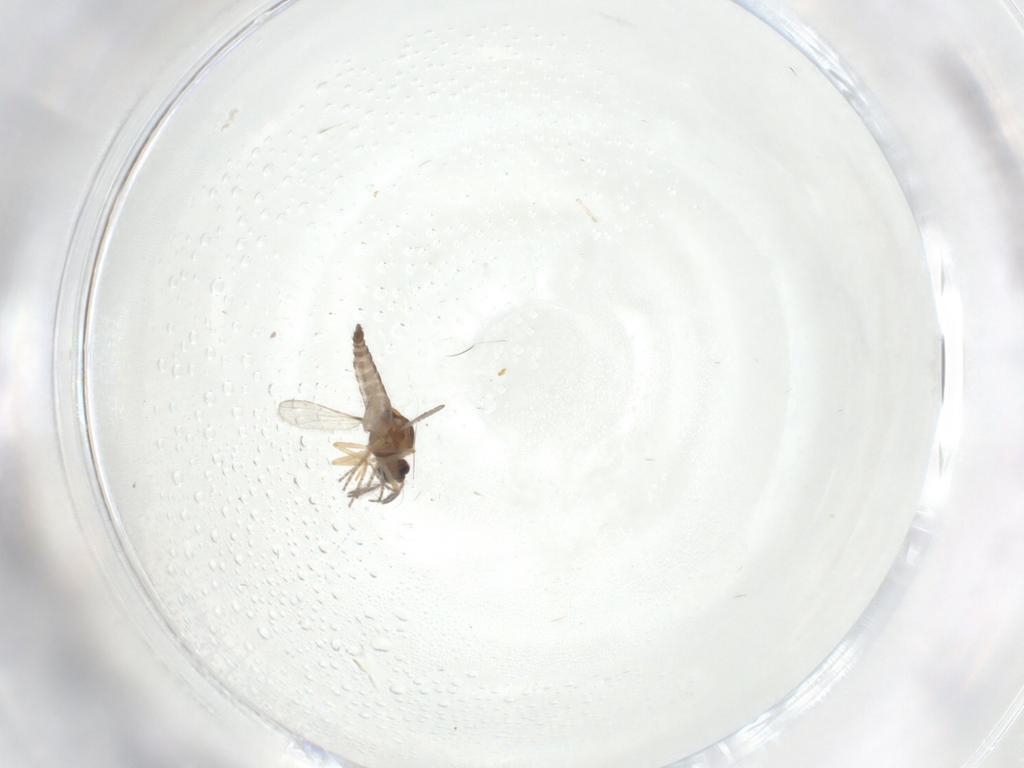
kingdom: Animalia
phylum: Arthropoda
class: Insecta
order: Diptera
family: Ceratopogonidae
